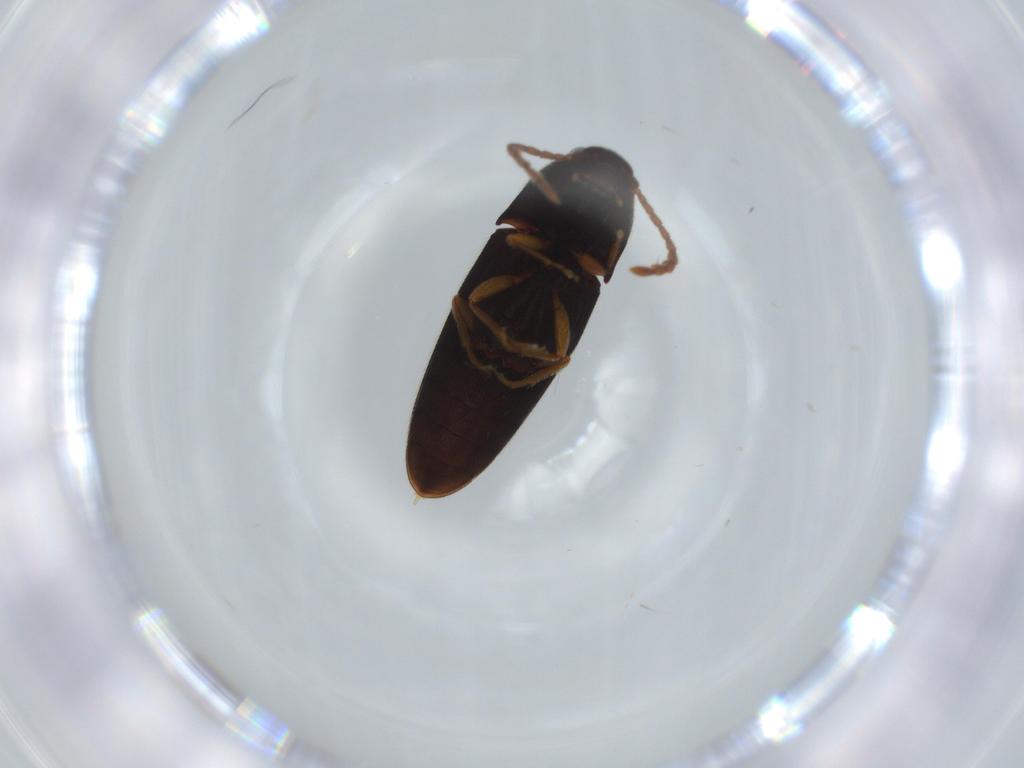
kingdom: Animalia
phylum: Arthropoda
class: Insecta
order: Coleoptera
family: Elateridae
